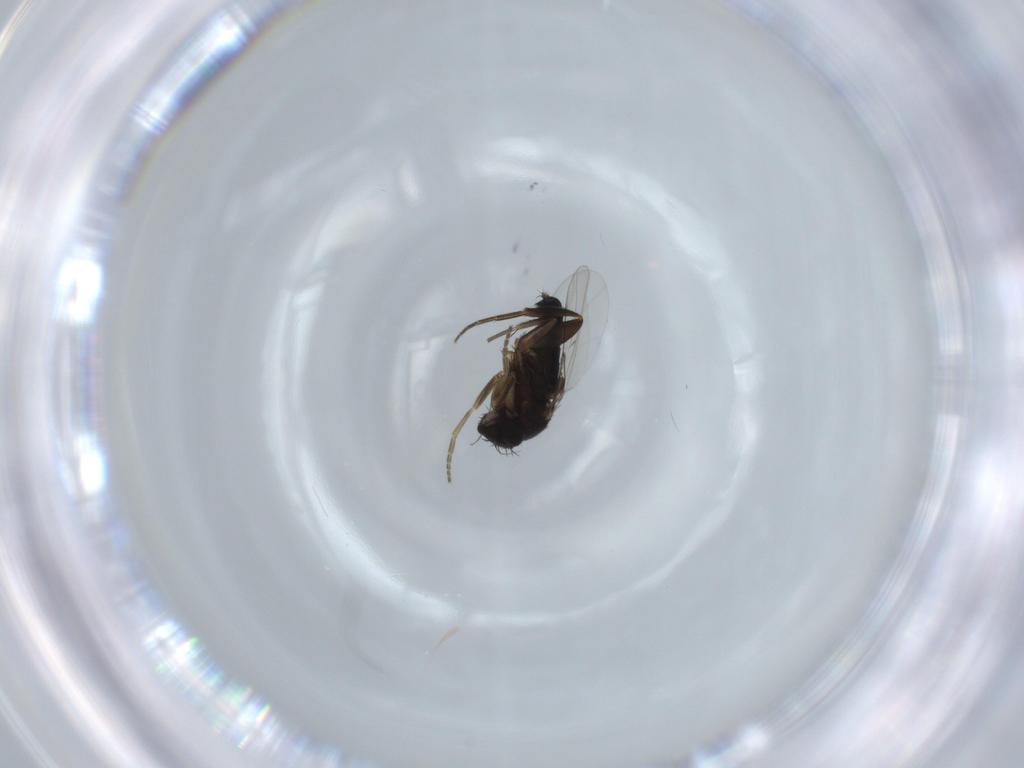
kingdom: Animalia
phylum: Arthropoda
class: Insecta
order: Diptera
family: Phoridae
